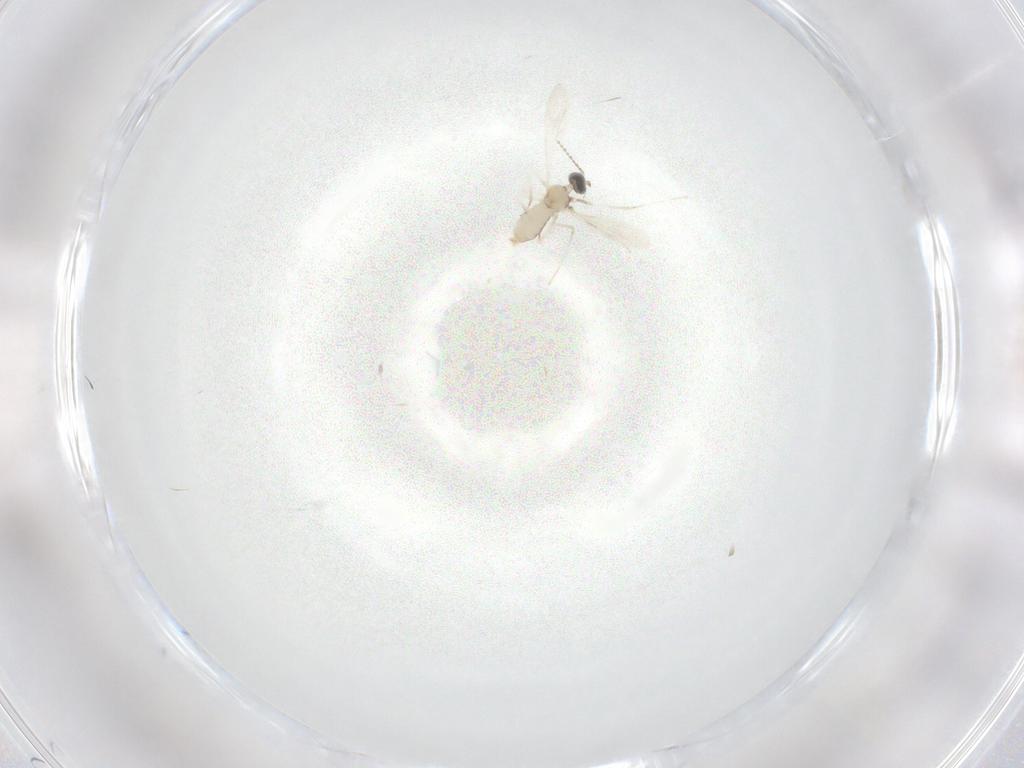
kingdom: Animalia
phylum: Arthropoda
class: Insecta
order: Diptera
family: Cecidomyiidae
